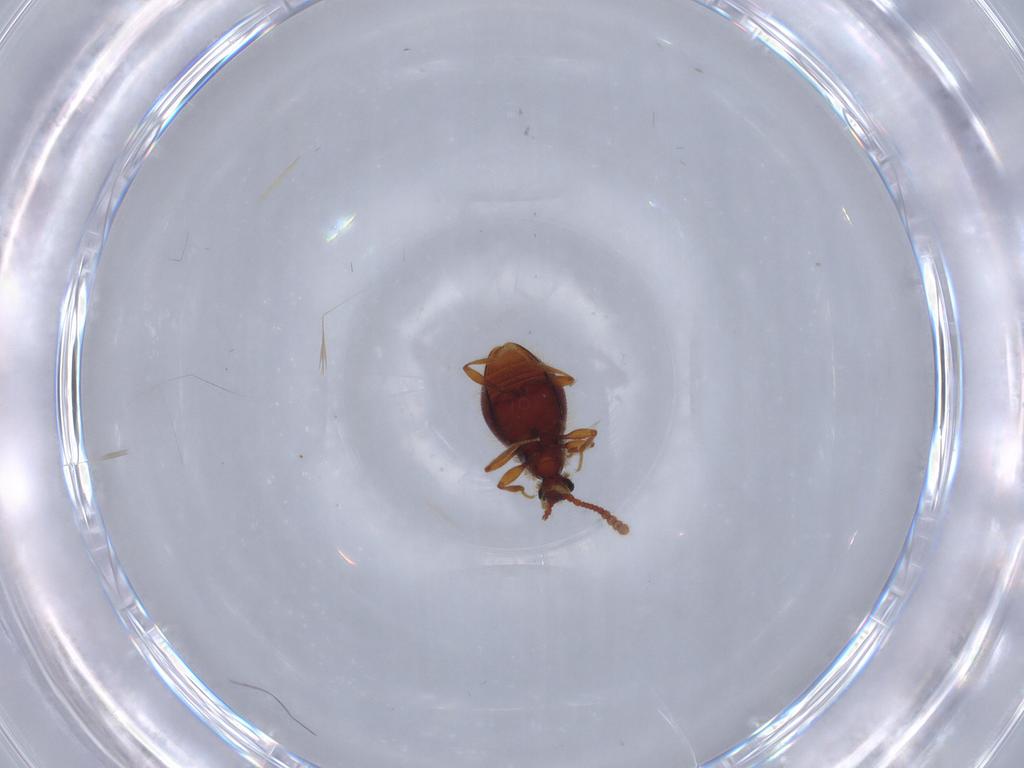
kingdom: Animalia
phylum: Arthropoda
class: Insecta
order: Coleoptera
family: Staphylinidae
